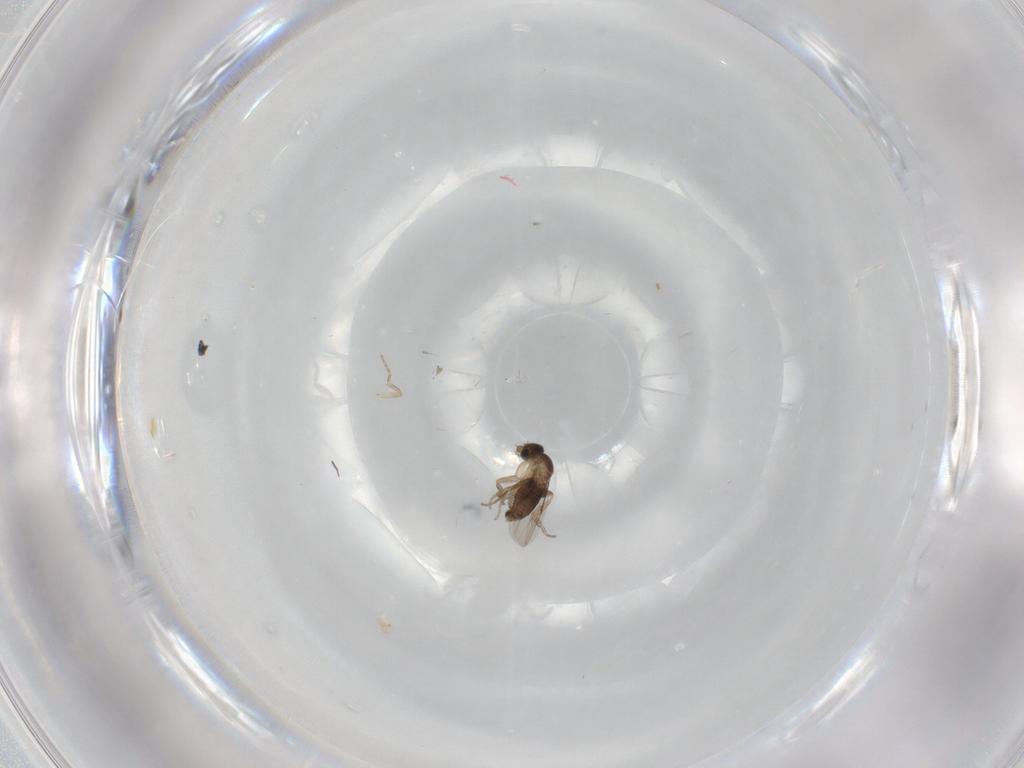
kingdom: Animalia
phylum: Arthropoda
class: Insecta
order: Diptera
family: Phoridae
